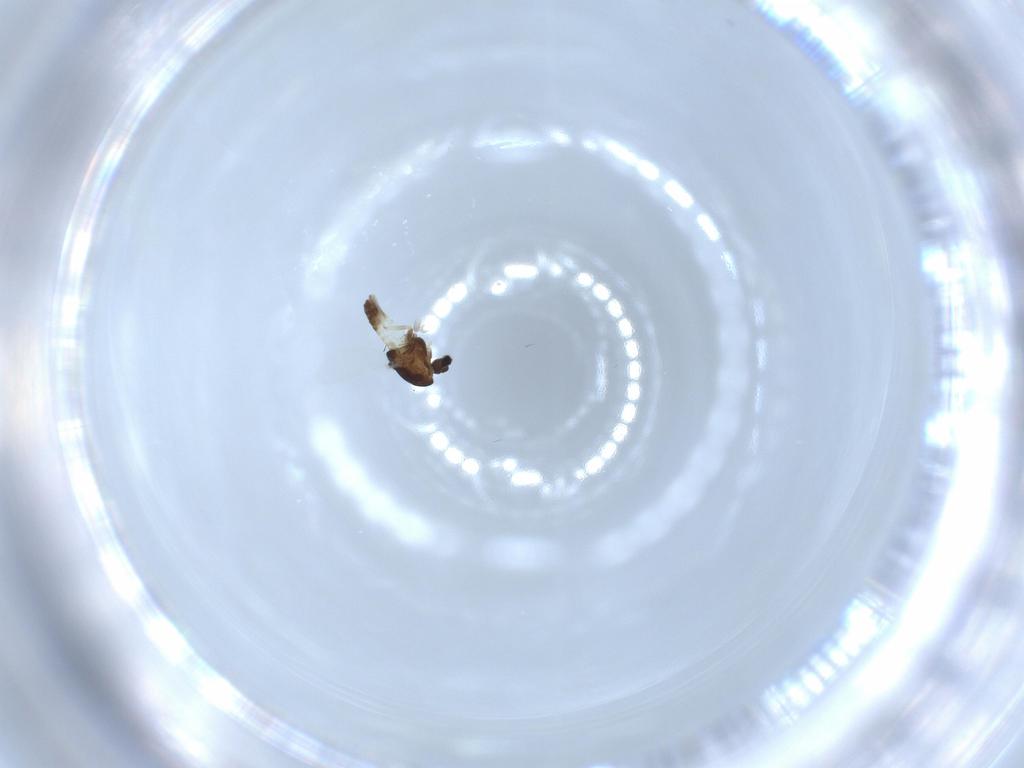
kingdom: Animalia
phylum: Arthropoda
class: Insecta
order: Diptera
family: Chironomidae
